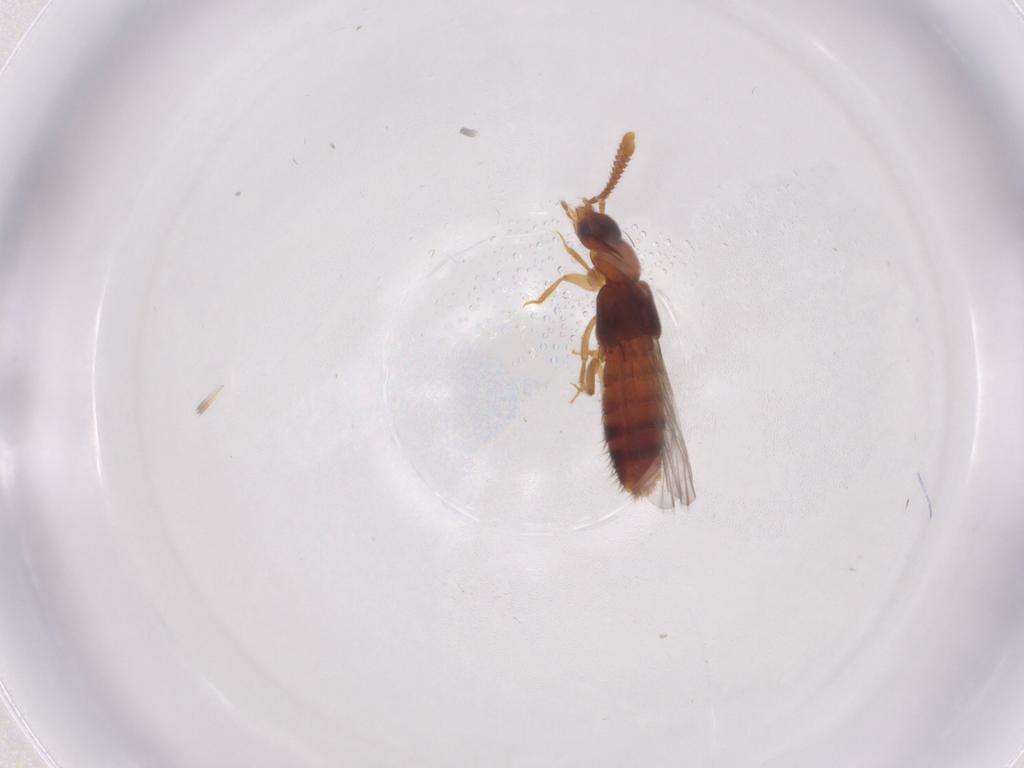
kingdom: Animalia
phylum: Arthropoda
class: Insecta
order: Coleoptera
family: Staphylinidae
